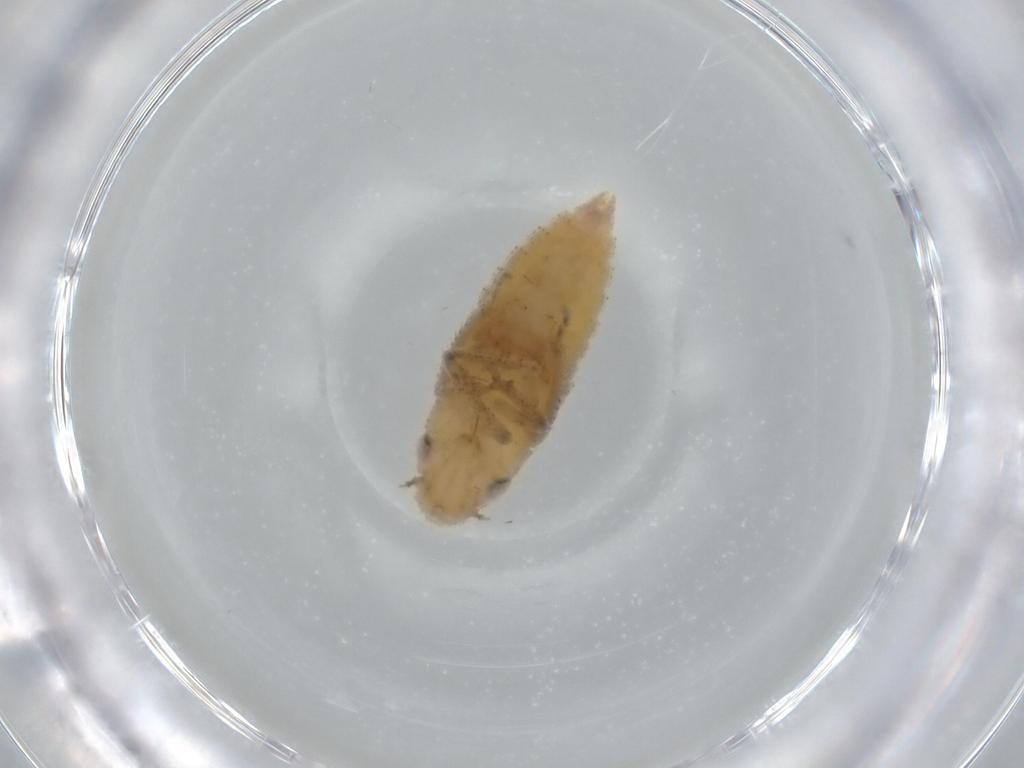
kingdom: Animalia
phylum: Arthropoda
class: Insecta
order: Hemiptera
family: Cicadellidae
